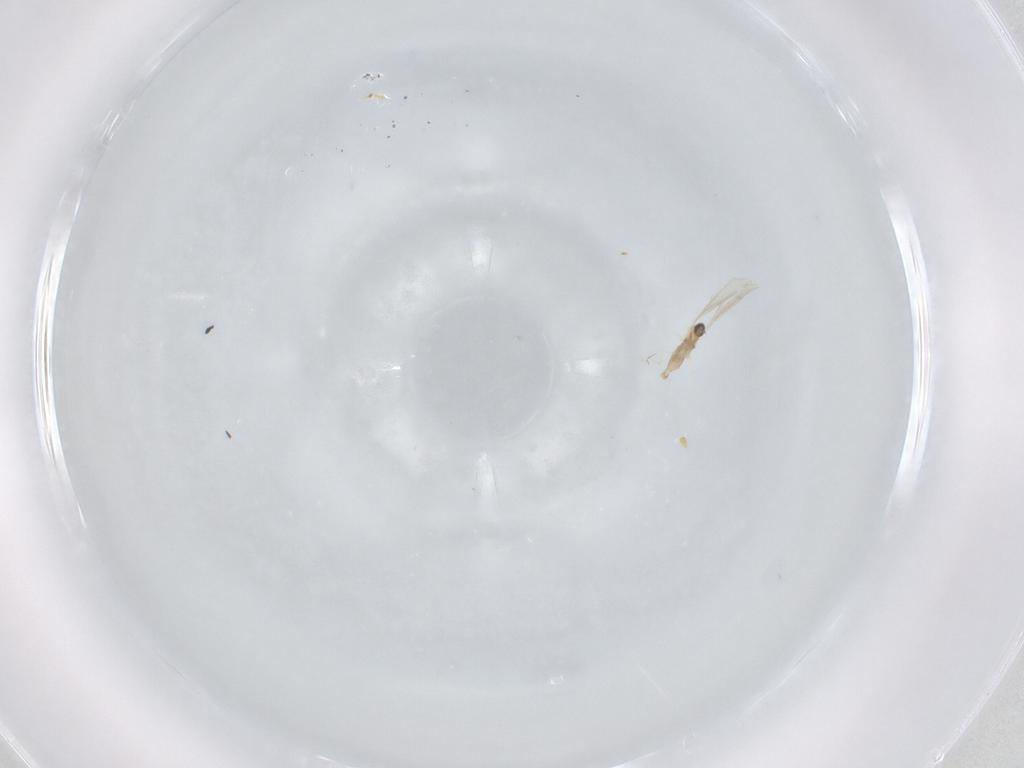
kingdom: Animalia
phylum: Arthropoda
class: Insecta
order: Diptera
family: Cecidomyiidae
